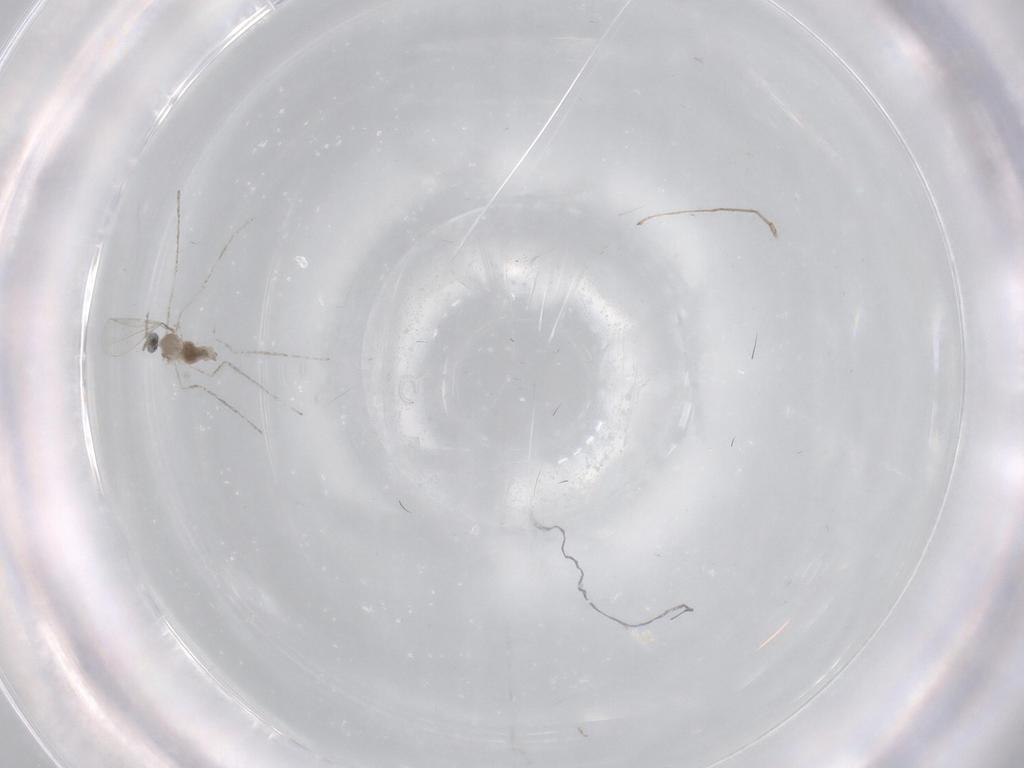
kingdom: Animalia
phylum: Arthropoda
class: Insecta
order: Diptera
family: Cecidomyiidae
